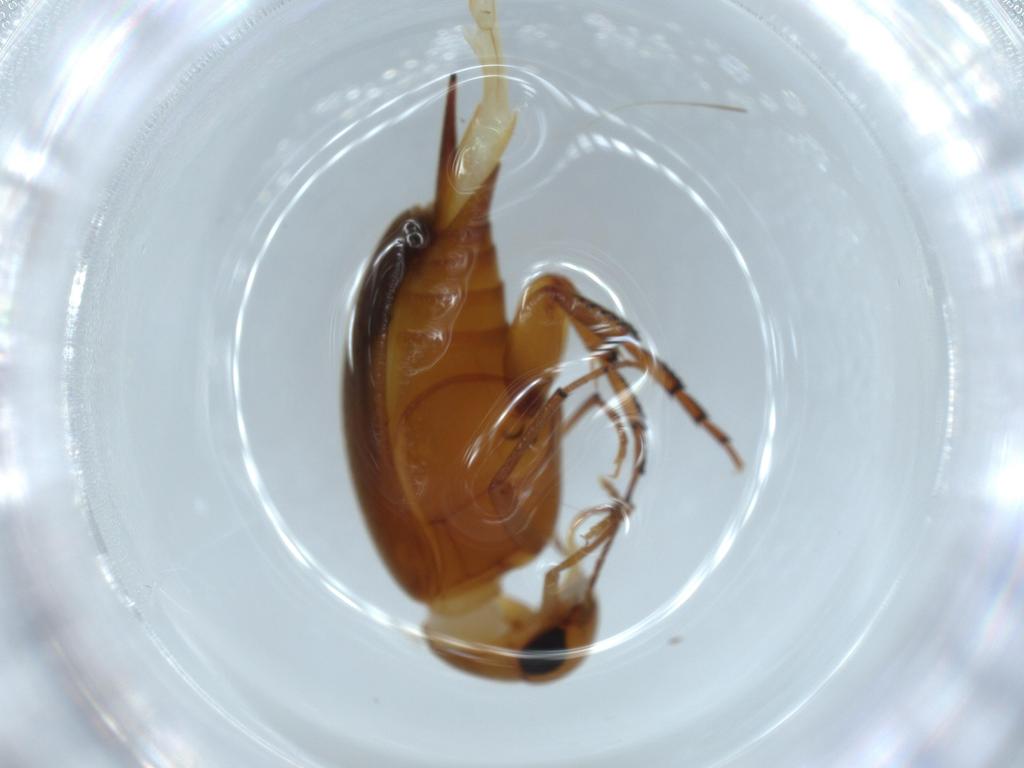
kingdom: Animalia
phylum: Arthropoda
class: Insecta
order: Coleoptera
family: Mordellidae
